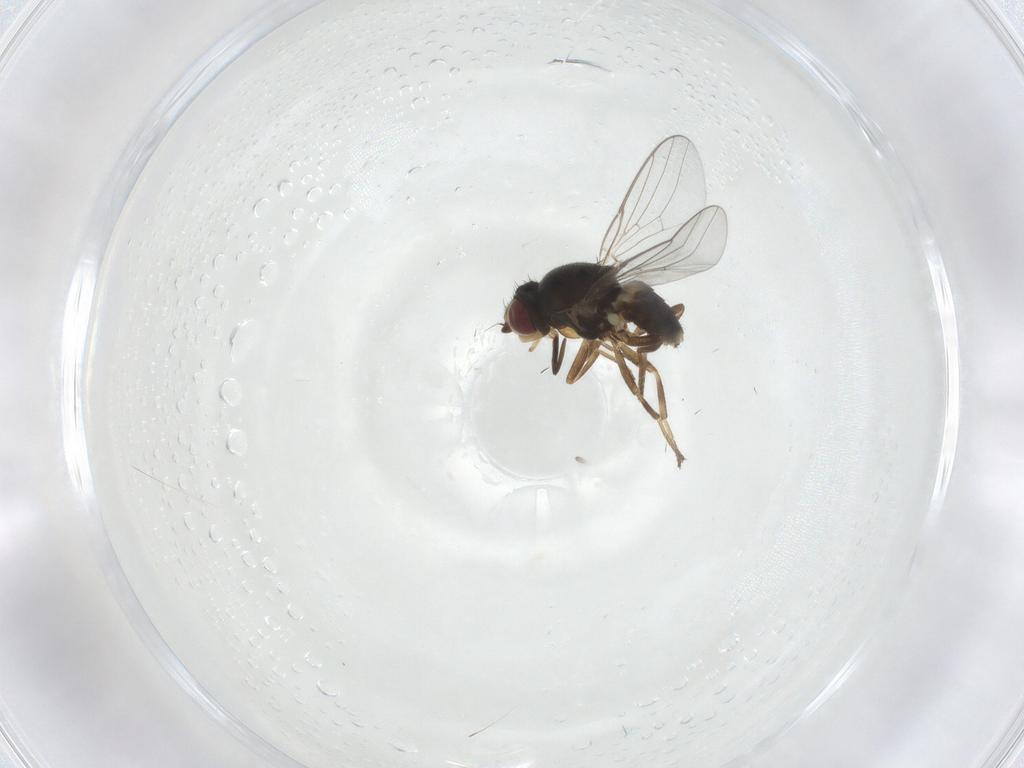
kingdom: Animalia
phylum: Arthropoda
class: Insecta
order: Diptera
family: Chloropidae
